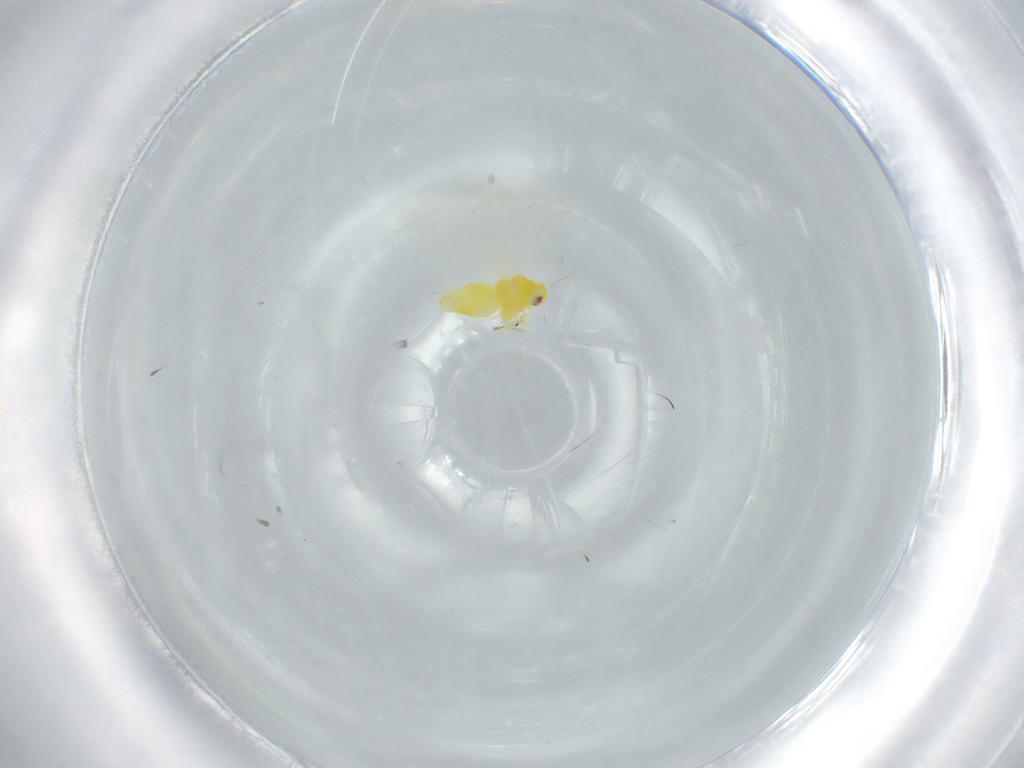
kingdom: Animalia
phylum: Arthropoda
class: Insecta
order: Hemiptera
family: Aleyrodidae
